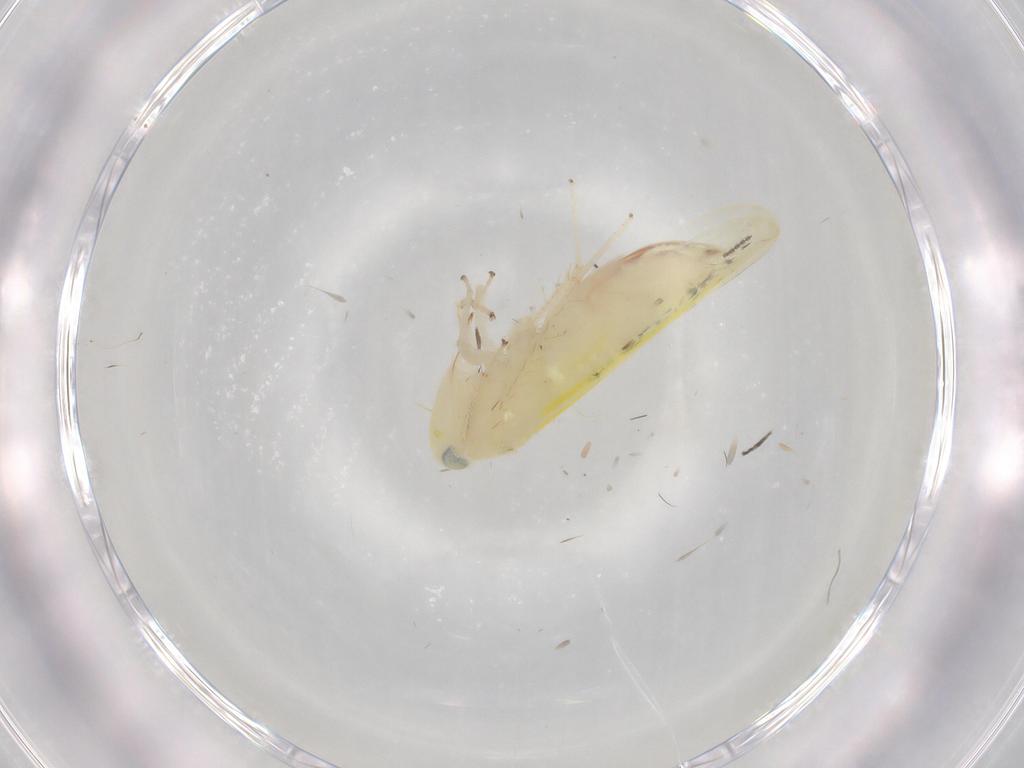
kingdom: Animalia
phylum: Arthropoda
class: Insecta
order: Hemiptera
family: Cicadellidae
